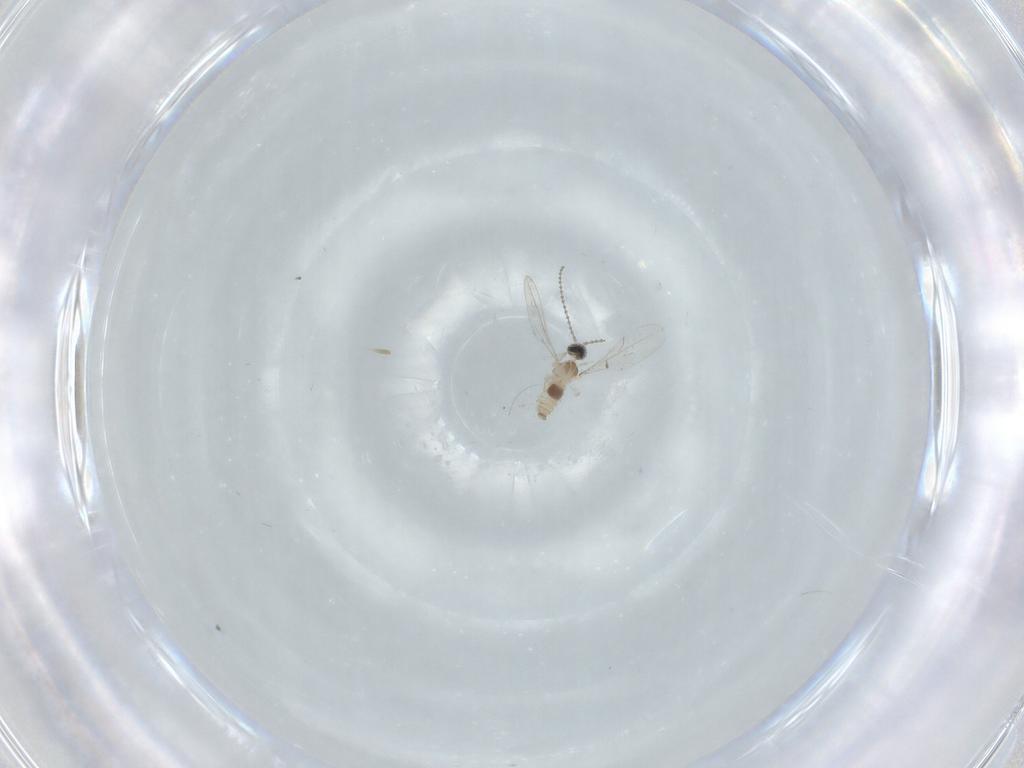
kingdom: Animalia
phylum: Arthropoda
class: Insecta
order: Diptera
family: Cecidomyiidae
